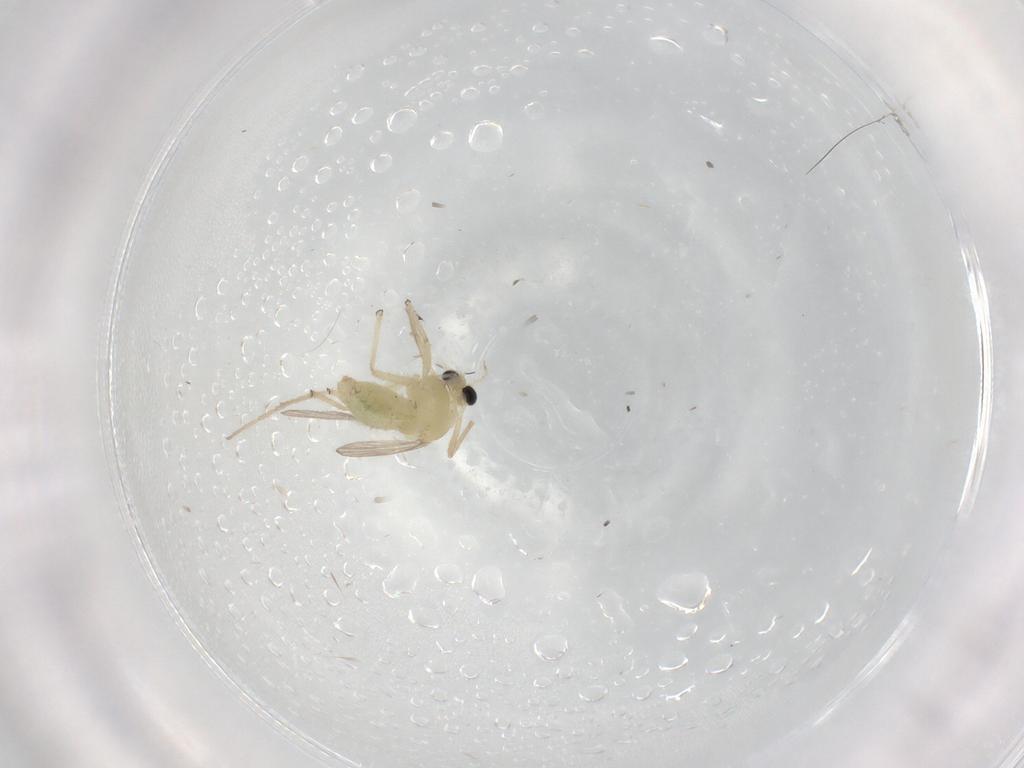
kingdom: Animalia
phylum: Arthropoda
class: Insecta
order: Diptera
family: Chironomidae
